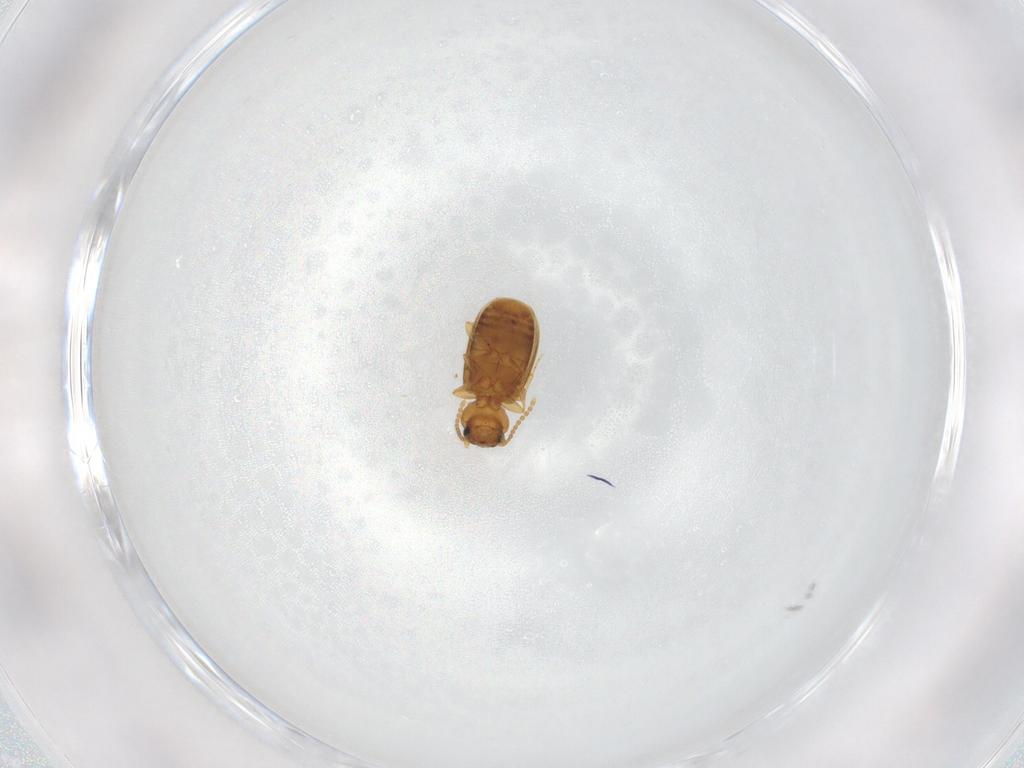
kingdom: Animalia
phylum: Arthropoda
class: Insecta
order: Coleoptera
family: Carabidae
